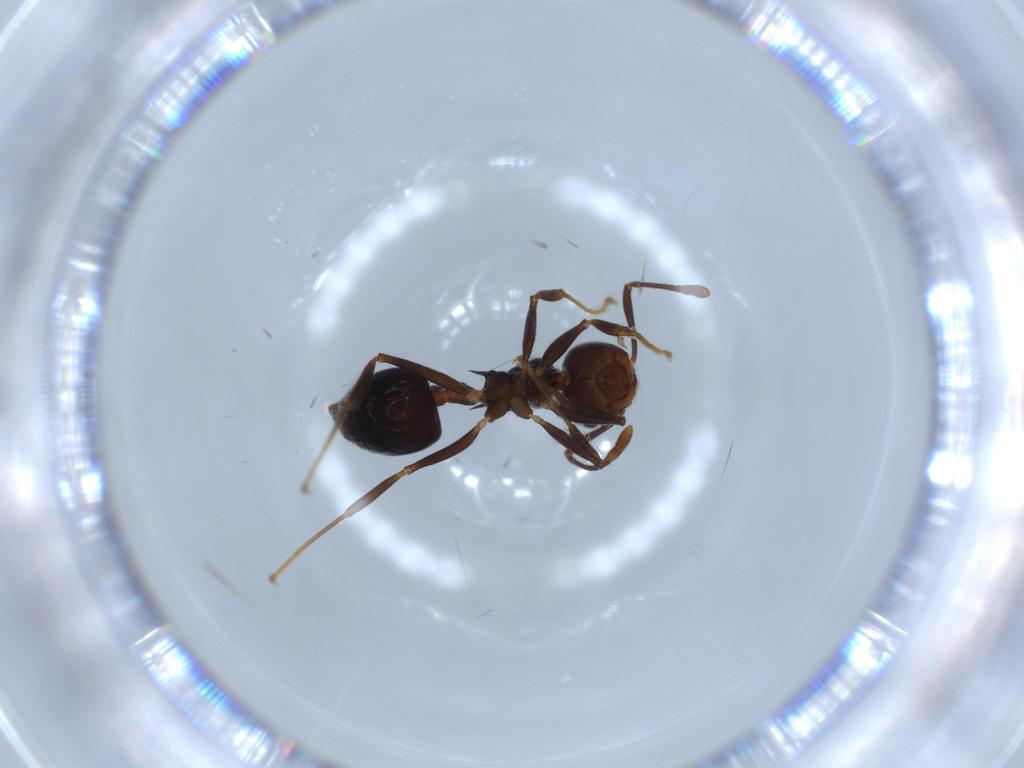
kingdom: Animalia
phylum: Arthropoda
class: Insecta
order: Hymenoptera
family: Formicidae
